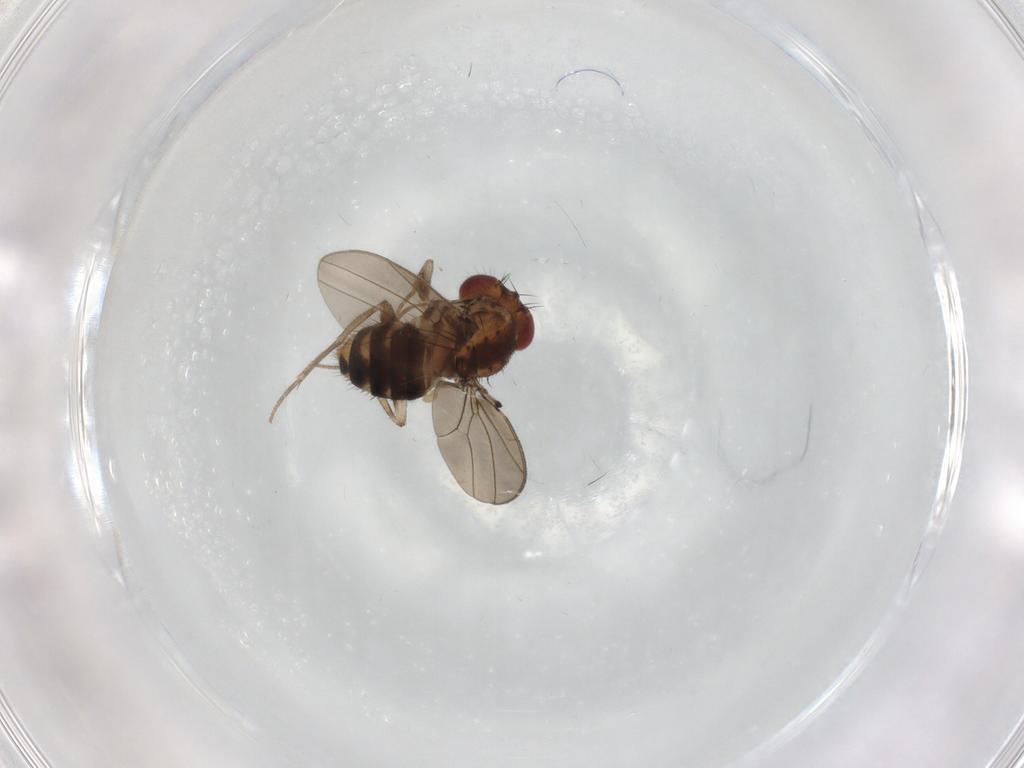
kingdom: Animalia
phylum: Arthropoda
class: Insecta
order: Diptera
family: Drosophilidae
